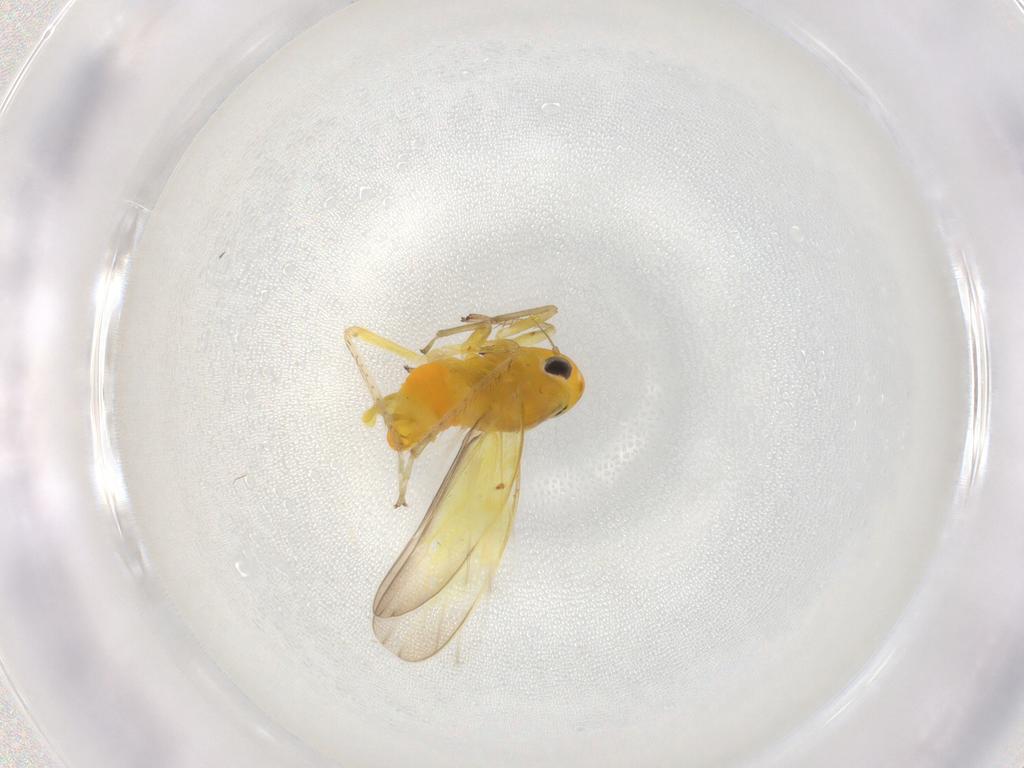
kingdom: Animalia
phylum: Arthropoda
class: Insecta
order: Hemiptera
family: Cicadellidae
